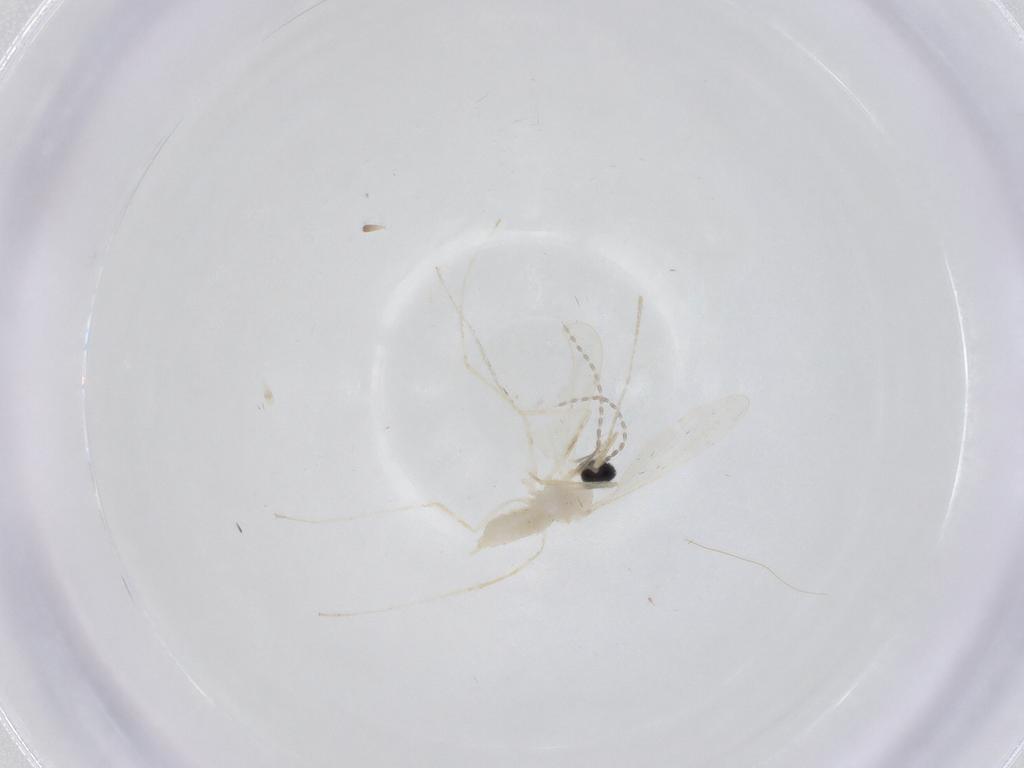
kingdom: Animalia
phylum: Arthropoda
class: Insecta
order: Diptera
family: Cecidomyiidae
